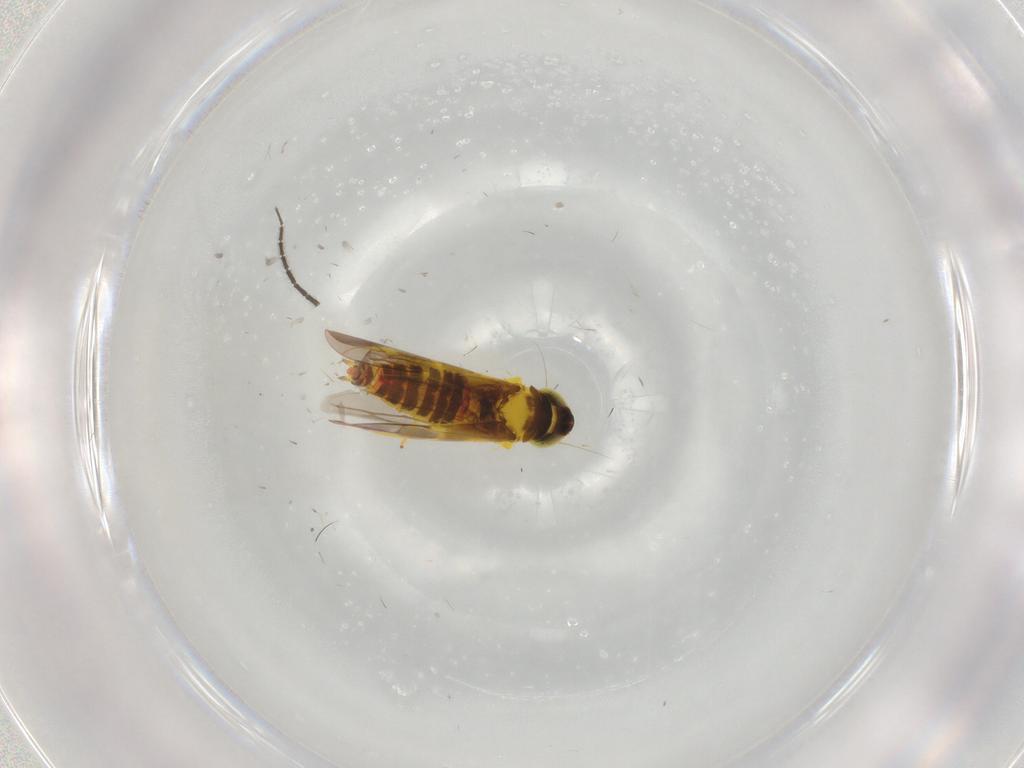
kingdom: Animalia
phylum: Arthropoda
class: Insecta
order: Hemiptera
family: Cicadellidae
